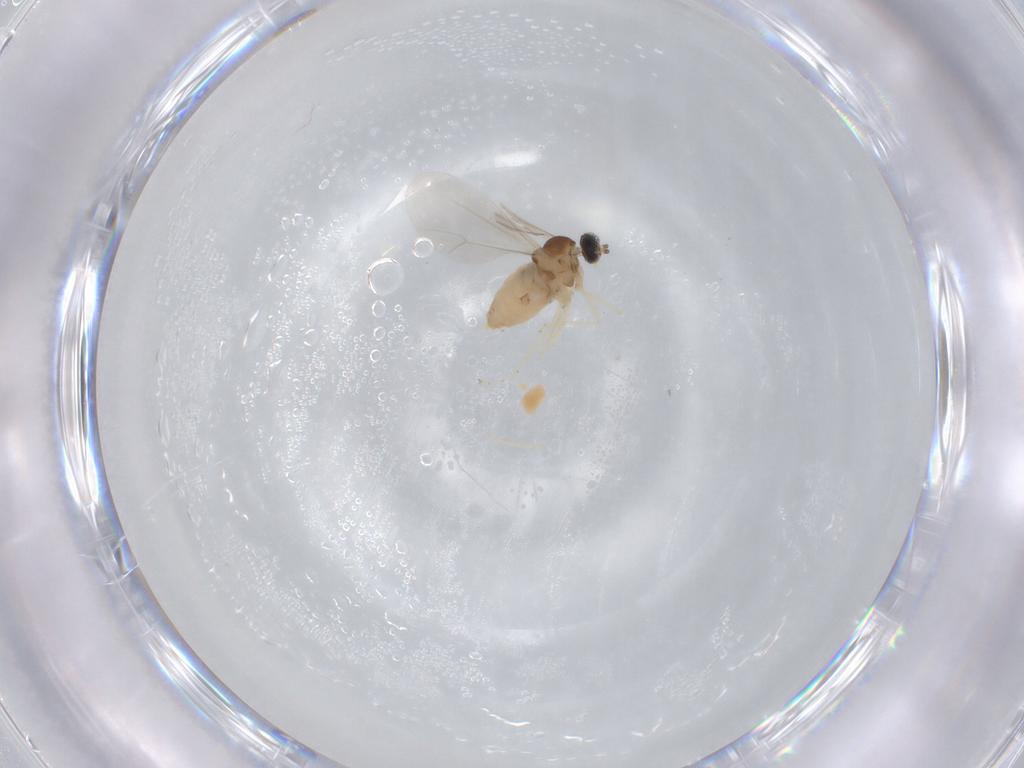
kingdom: Animalia
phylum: Arthropoda
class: Insecta
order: Diptera
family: Cecidomyiidae
